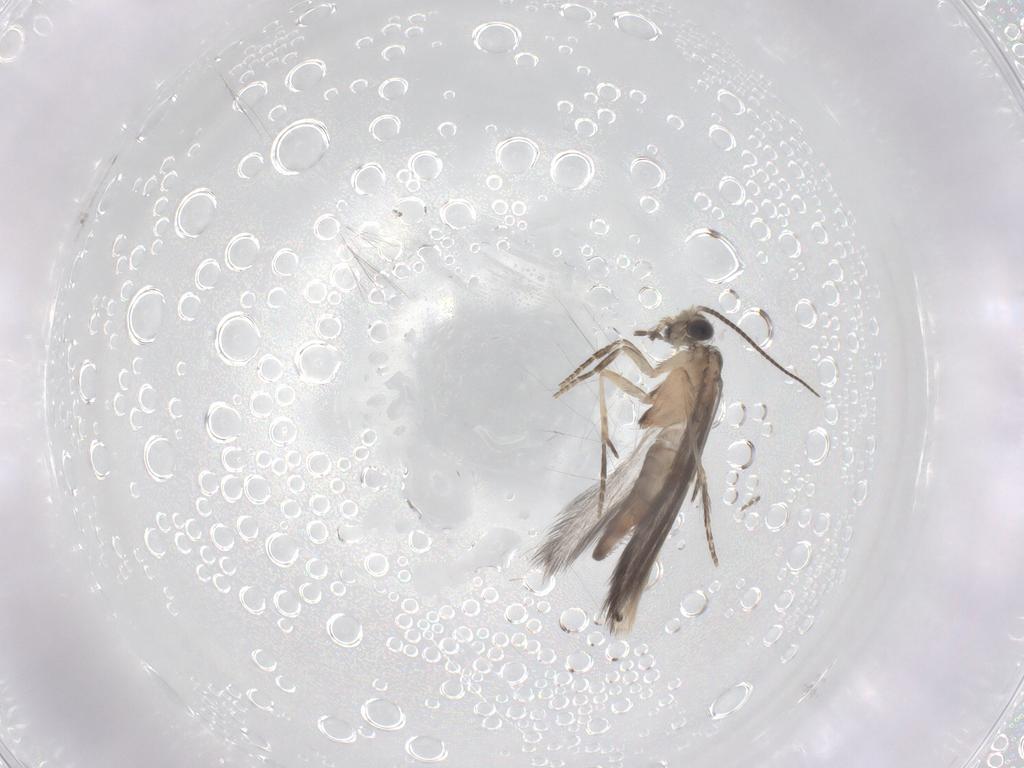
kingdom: Animalia
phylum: Arthropoda
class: Insecta
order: Trichoptera
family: Hydroptilidae
